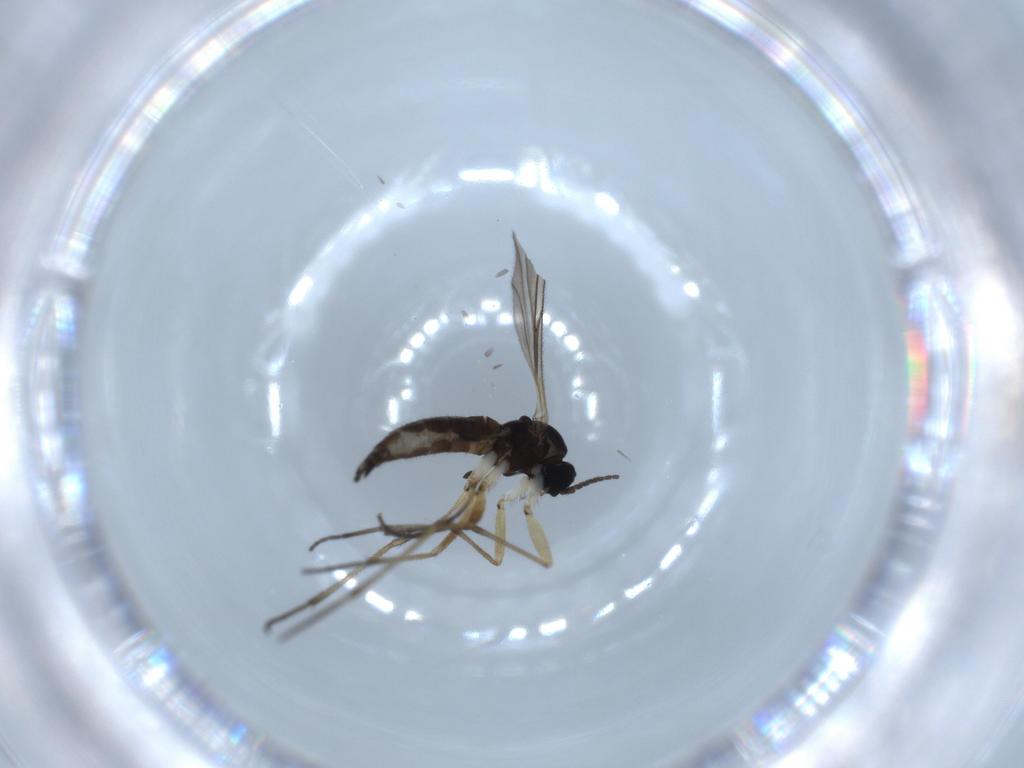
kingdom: Animalia
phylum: Arthropoda
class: Insecta
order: Diptera
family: Sciaridae
